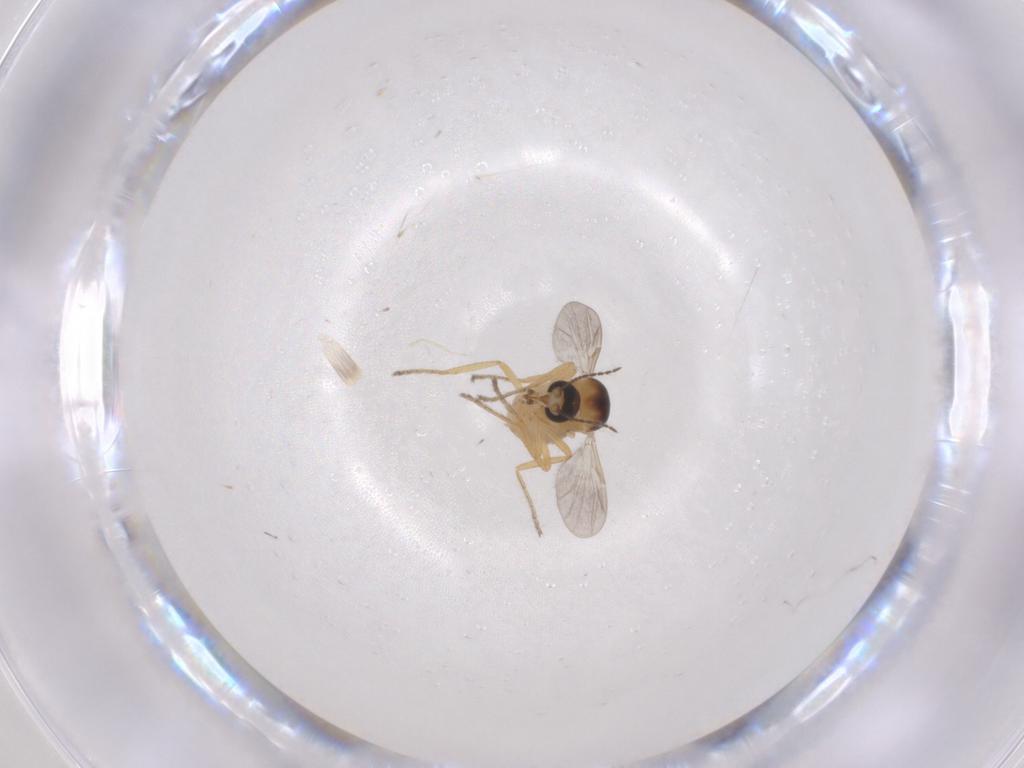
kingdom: Animalia
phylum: Arthropoda
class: Insecta
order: Diptera
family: Ceratopogonidae
